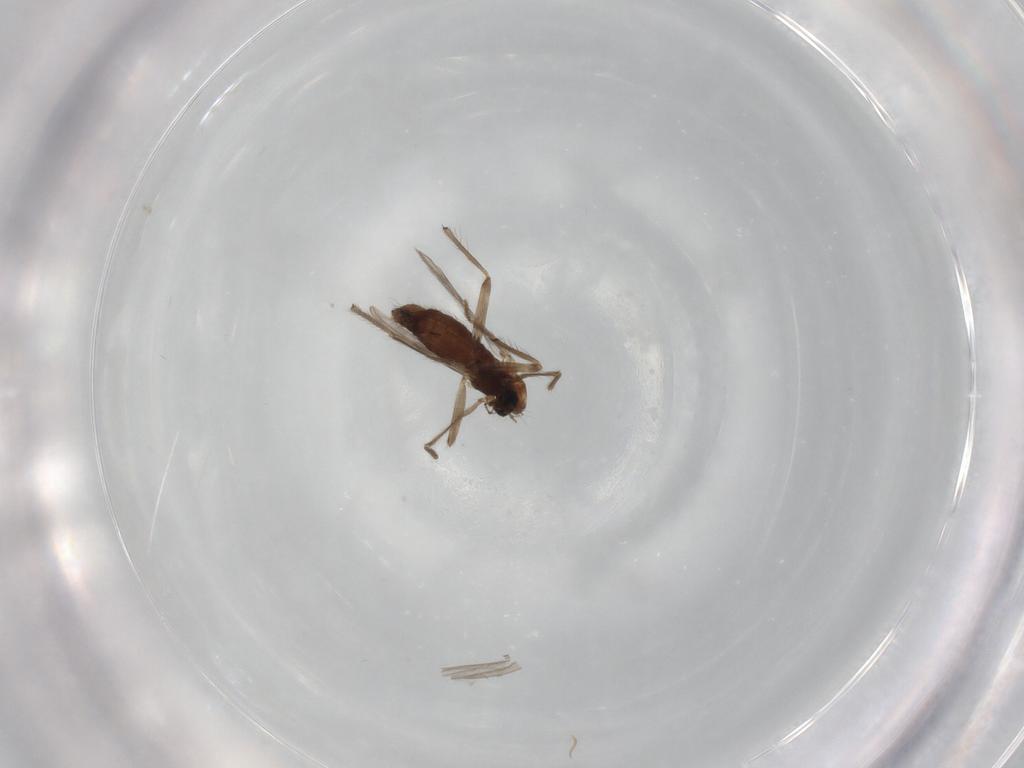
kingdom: Animalia
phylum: Arthropoda
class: Insecta
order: Diptera
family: Chironomidae
